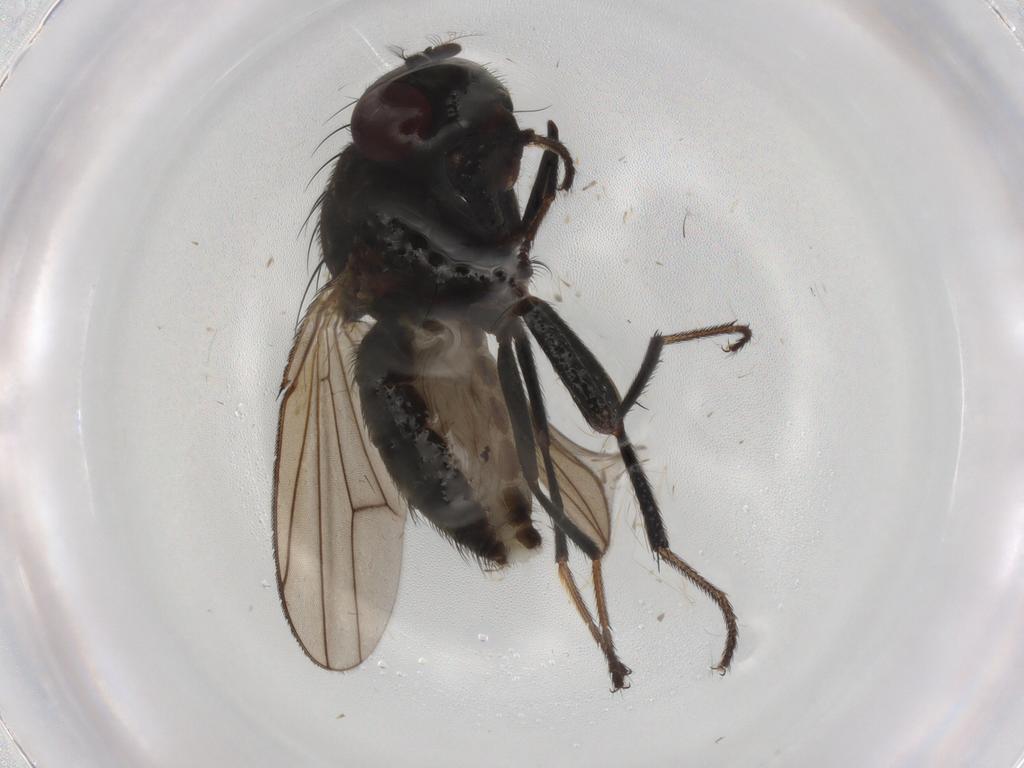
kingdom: Animalia
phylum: Arthropoda
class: Insecta
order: Diptera
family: Ephydridae
